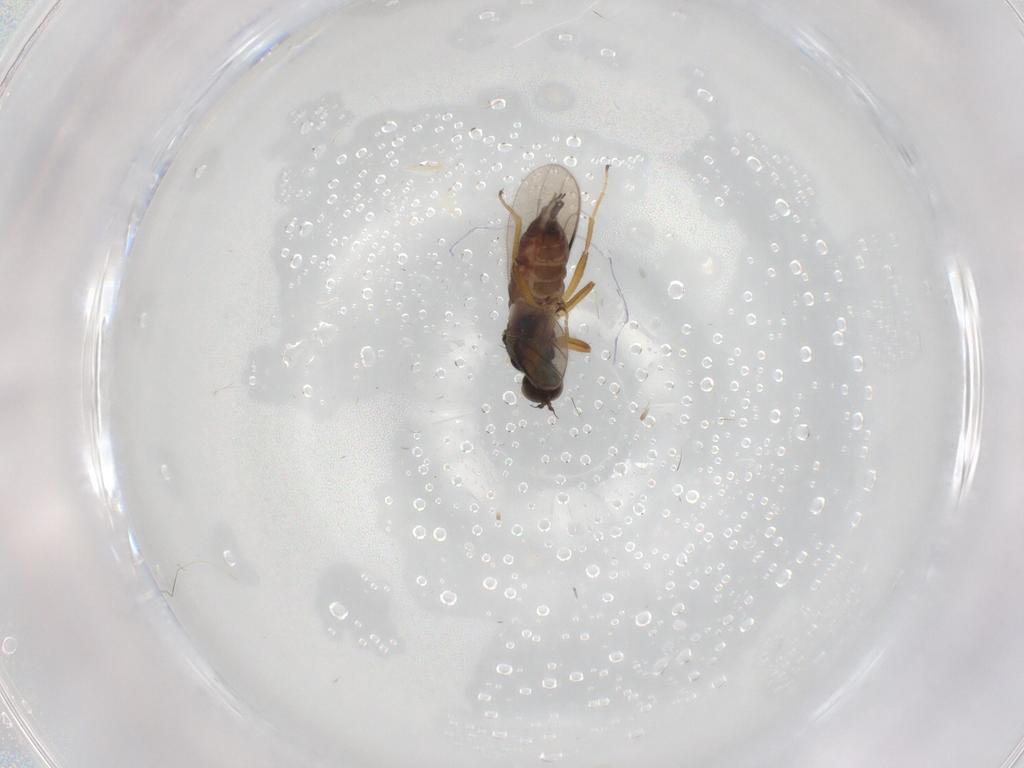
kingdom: Animalia
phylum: Arthropoda
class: Insecta
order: Diptera
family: Hybotidae
